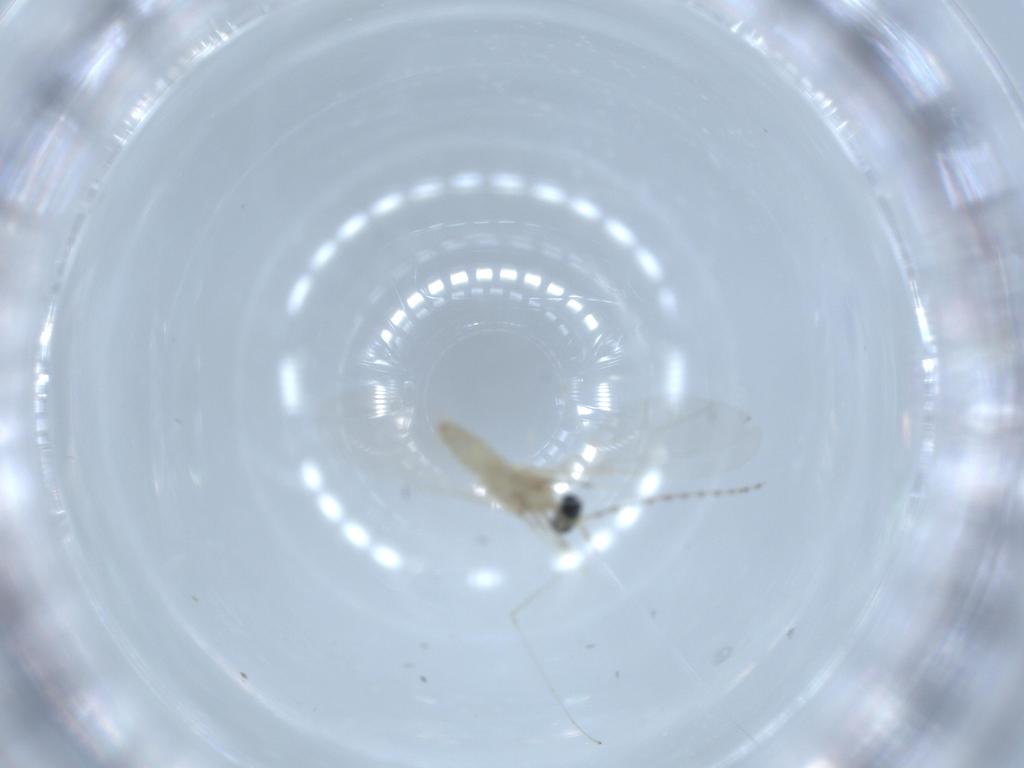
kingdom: Animalia
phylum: Arthropoda
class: Insecta
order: Diptera
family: Cecidomyiidae
